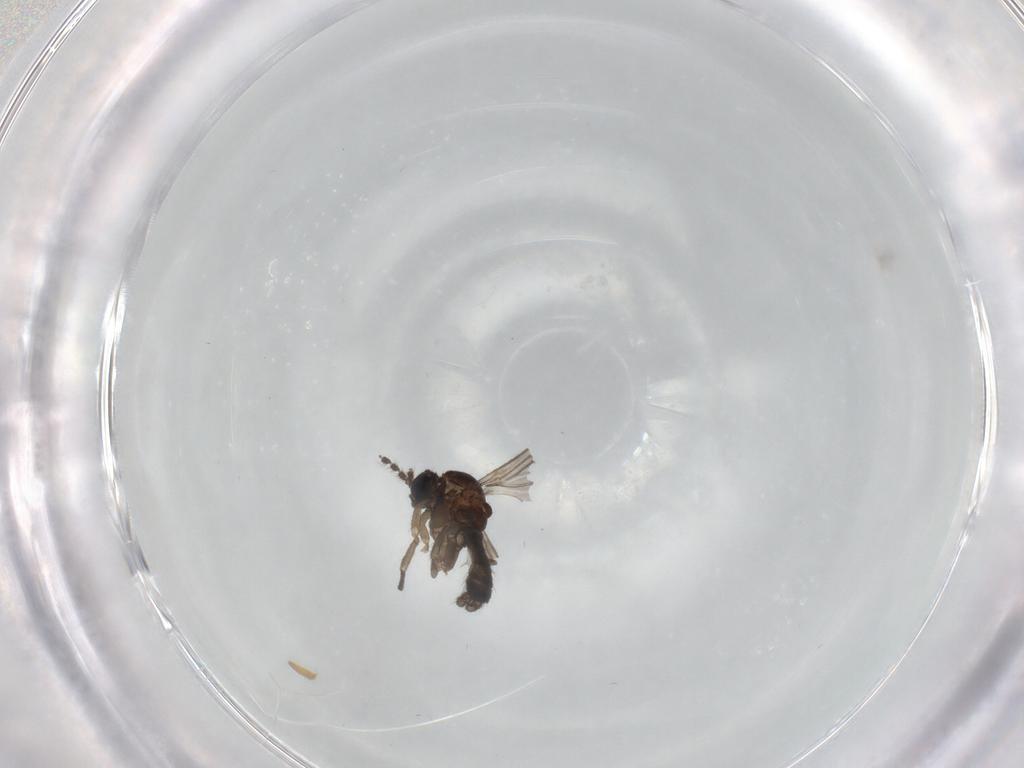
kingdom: Animalia
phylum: Arthropoda
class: Insecta
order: Diptera
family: Sciaridae
